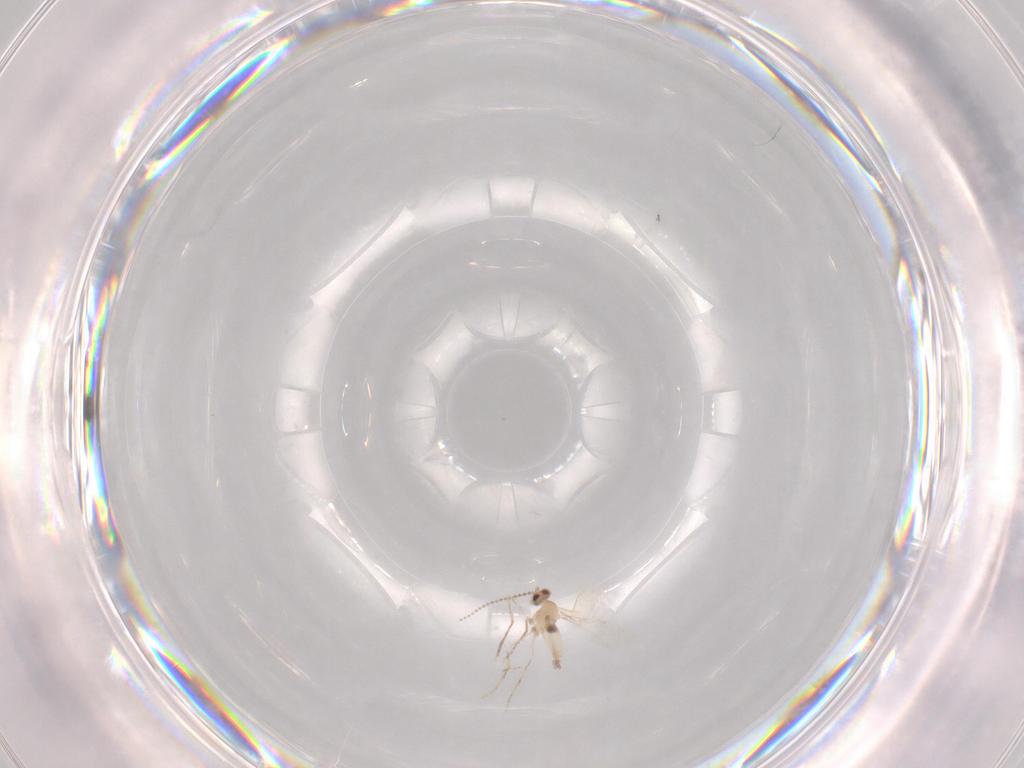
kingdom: Animalia
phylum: Arthropoda
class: Insecta
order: Diptera
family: Cecidomyiidae
